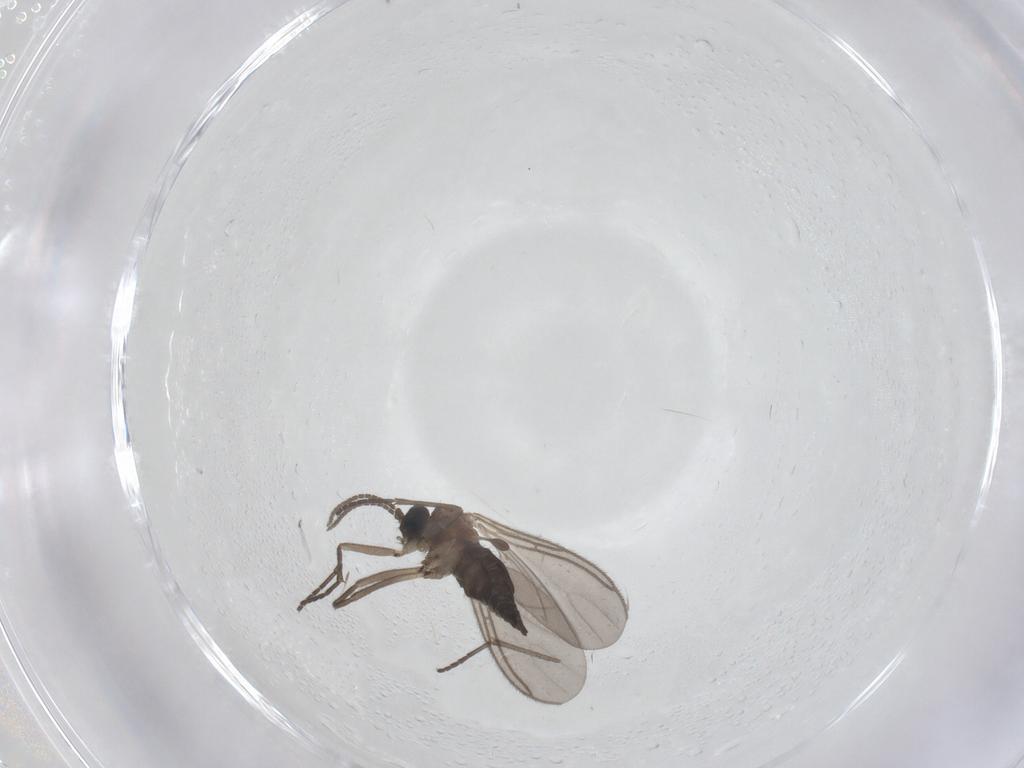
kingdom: Animalia
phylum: Arthropoda
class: Insecta
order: Diptera
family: Sciaridae
